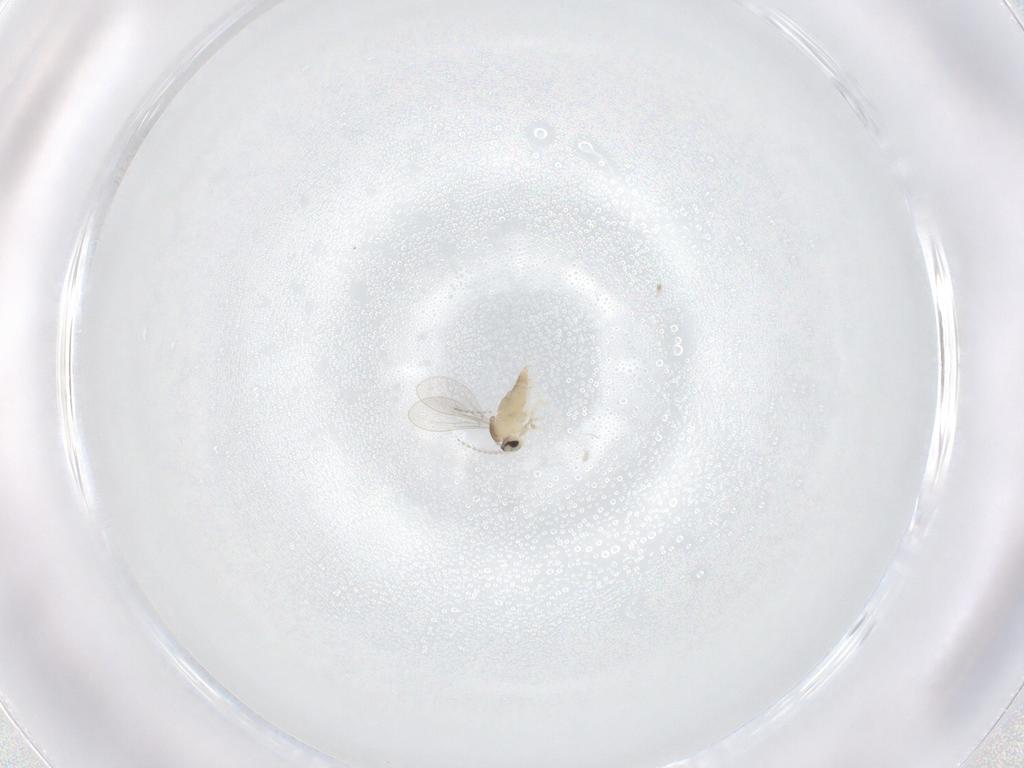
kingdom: Animalia
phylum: Arthropoda
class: Insecta
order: Diptera
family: Cecidomyiidae
